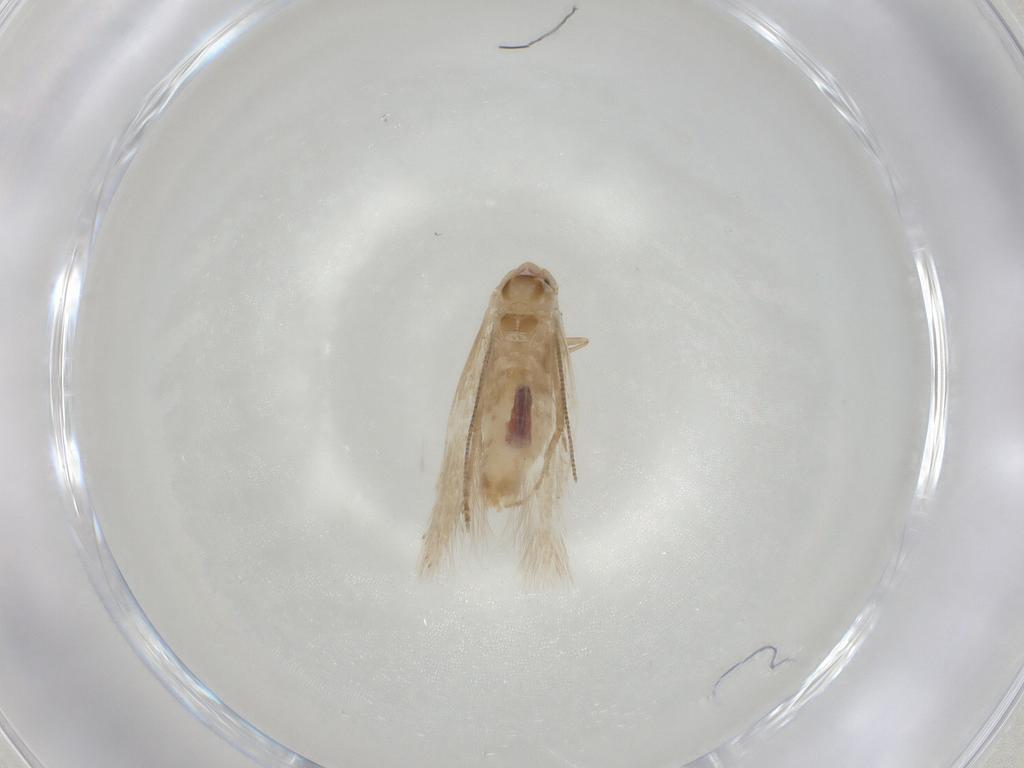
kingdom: Animalia
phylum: Arthropoda
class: Insecta
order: Lepidoptera
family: Bucculatricidae
